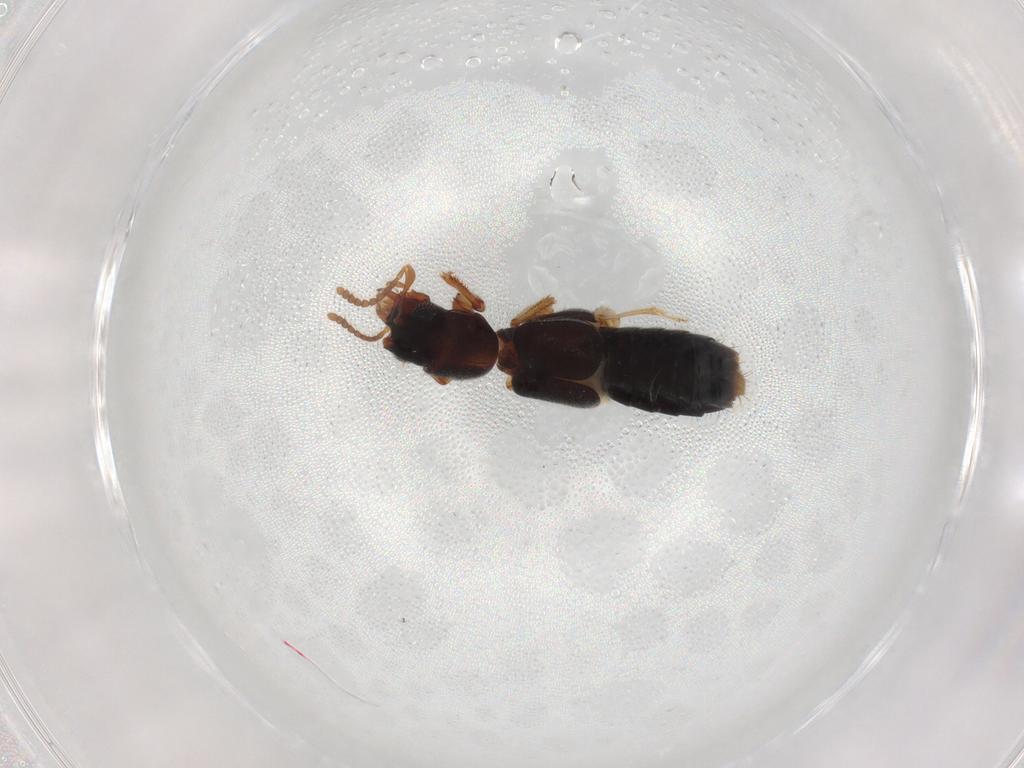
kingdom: Animalia
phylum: Arthropoda
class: Insecta
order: Coleoptera
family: Staphylinidae
